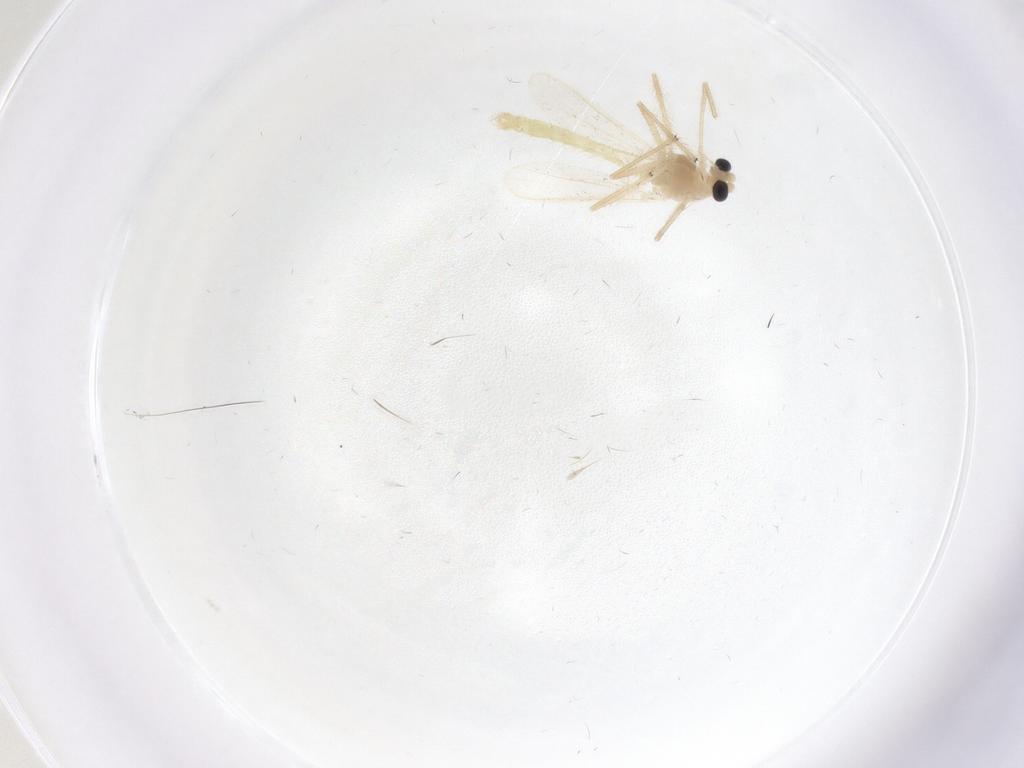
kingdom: Animalia
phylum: Arthropoda
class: Insecta
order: Diptera
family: Chironomidae
